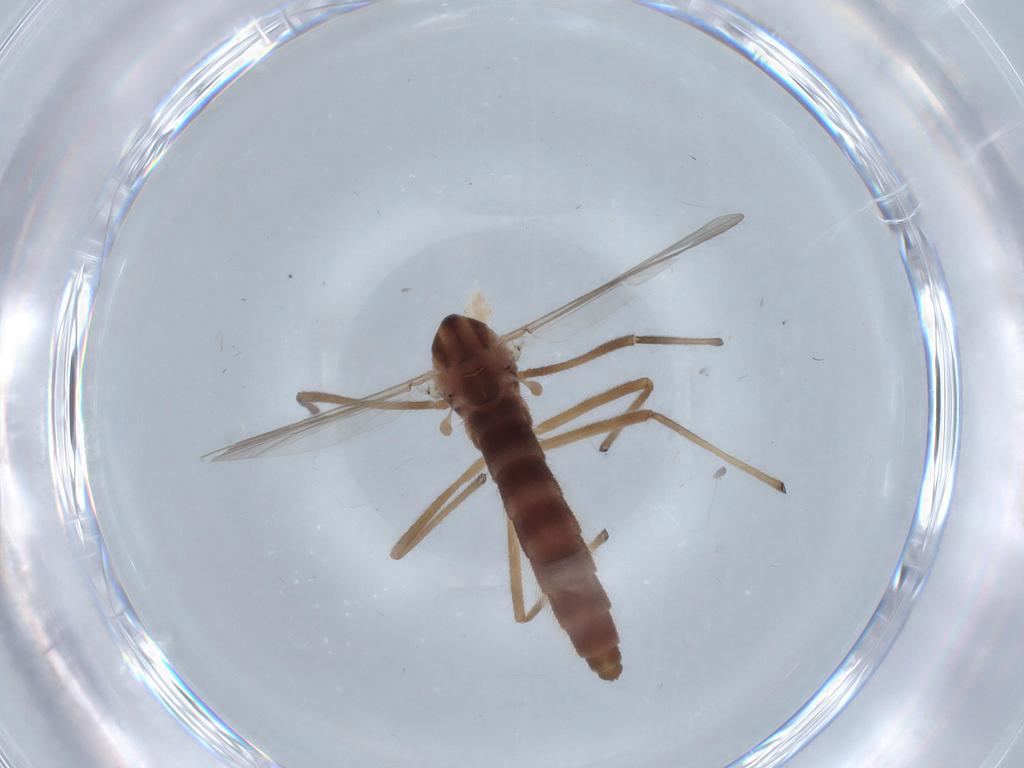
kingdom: Animalia
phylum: Arthropoda
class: Insecta
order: Diptera
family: Chironomidae
